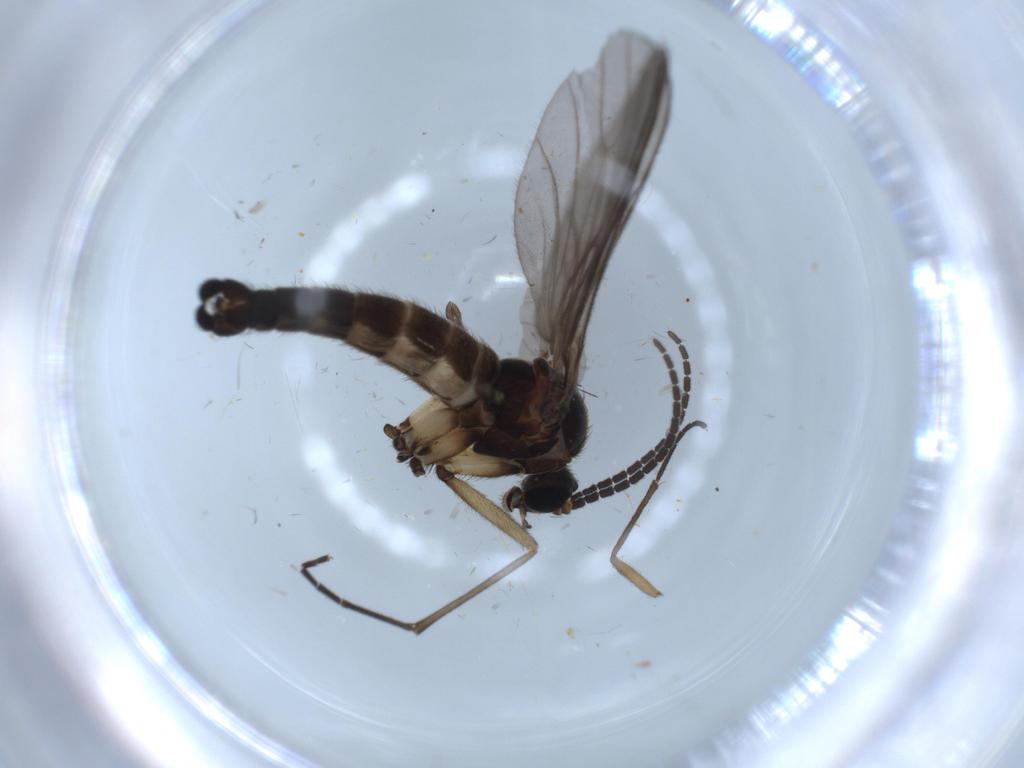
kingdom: Animalia
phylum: Arthropoda
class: Insecta
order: Diptera
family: Sciaridae
